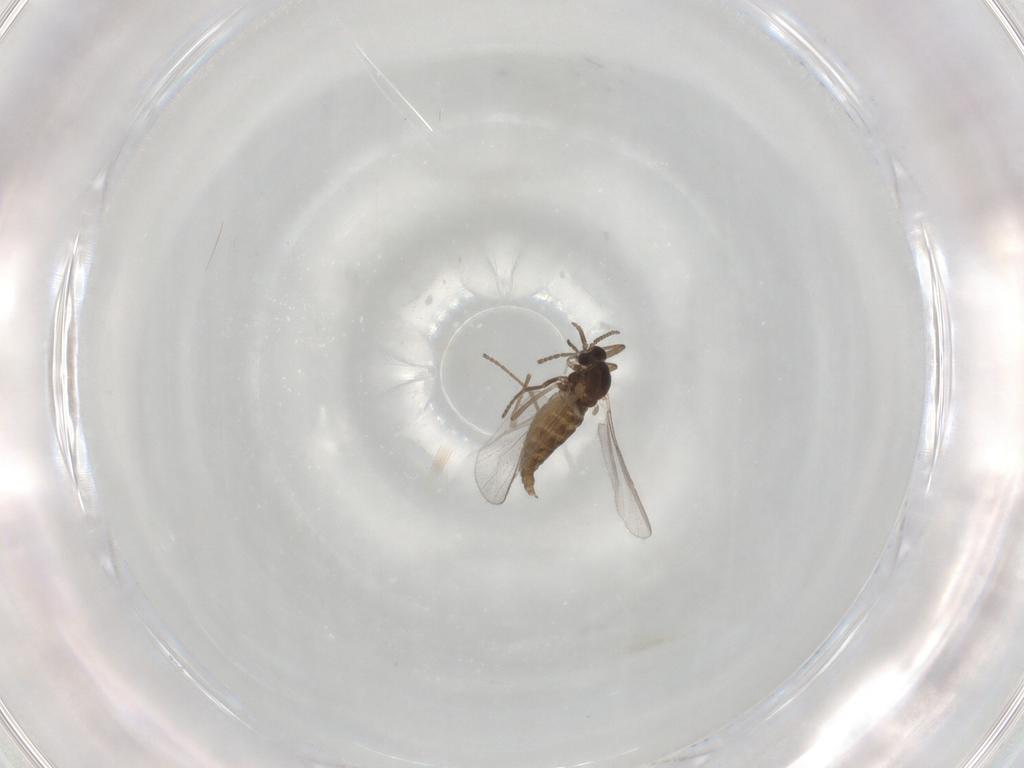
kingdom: Animalia
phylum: Arthropoda
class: Insecta
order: Diptera
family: Cecidomyiidae
